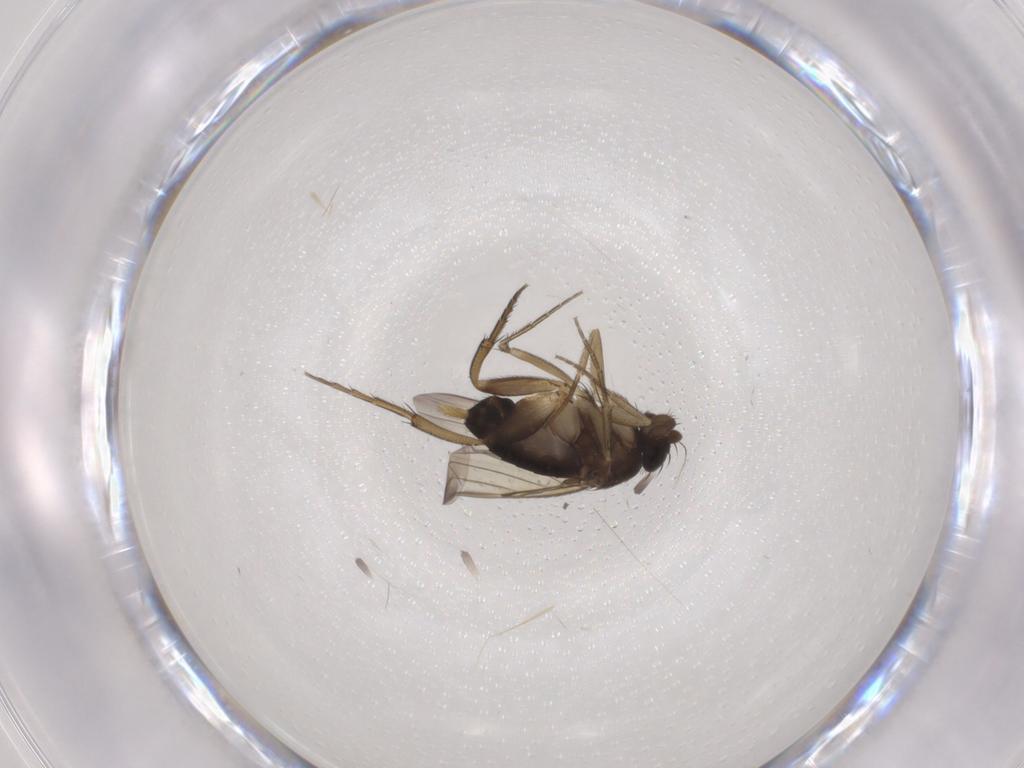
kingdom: Animalia
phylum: Arthropoda
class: Insecta
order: Diptera
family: Phoridae
